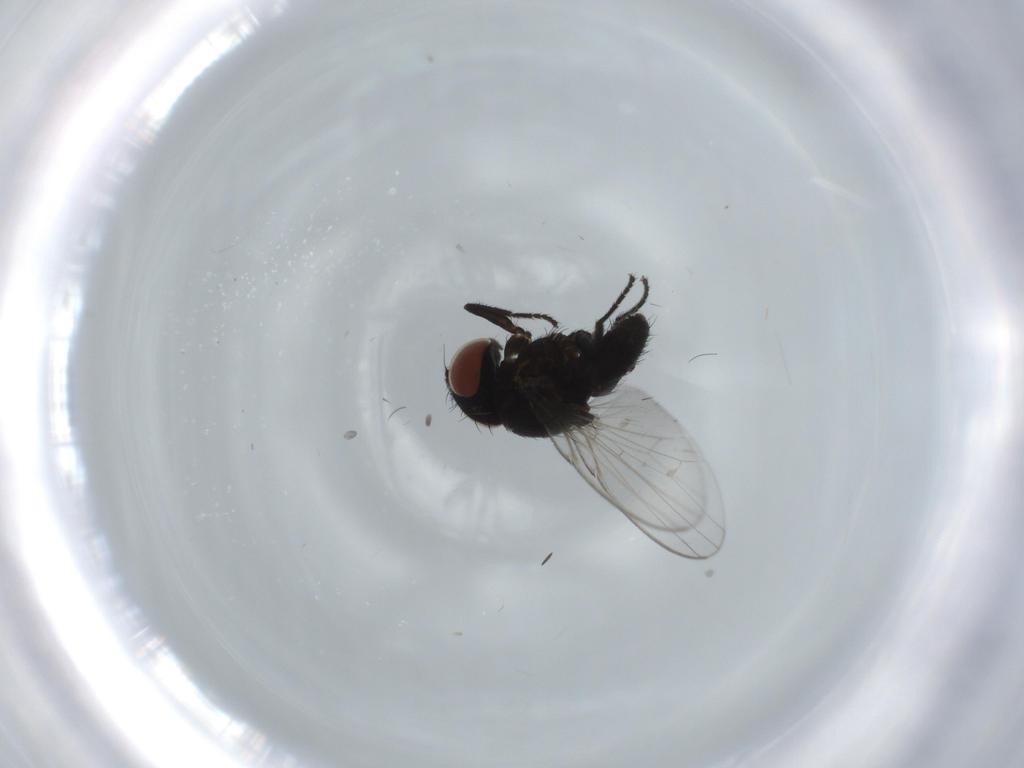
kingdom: Animalia
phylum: Arthropoda
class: Insecta
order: Diptera
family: Milichiidae
